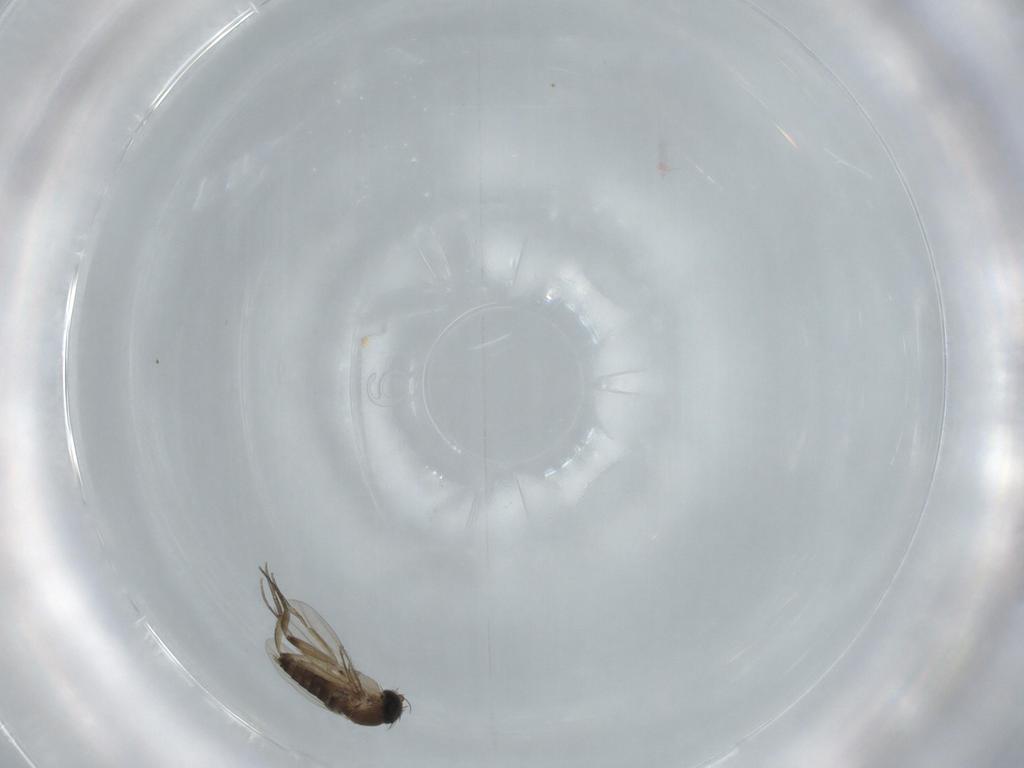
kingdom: Animalia
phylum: Arthropoda
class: Insecta
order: Diptera
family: Phoridae
